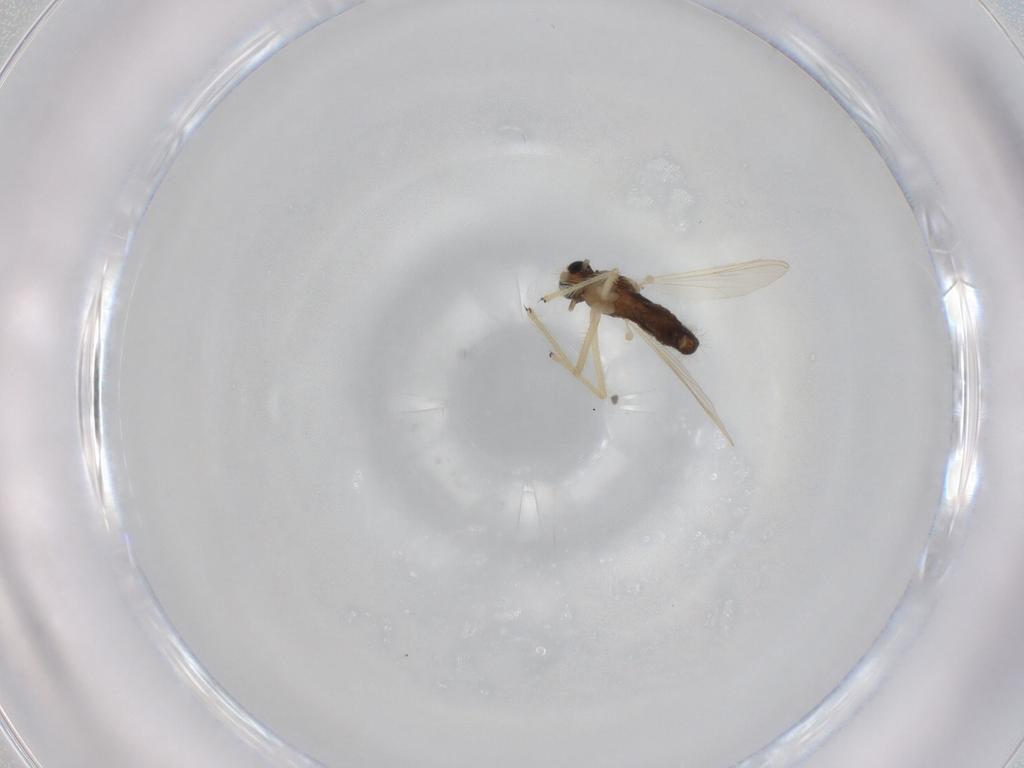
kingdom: Animalia
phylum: Arthropoda
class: Insecta
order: Diptera
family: Chironomidae
